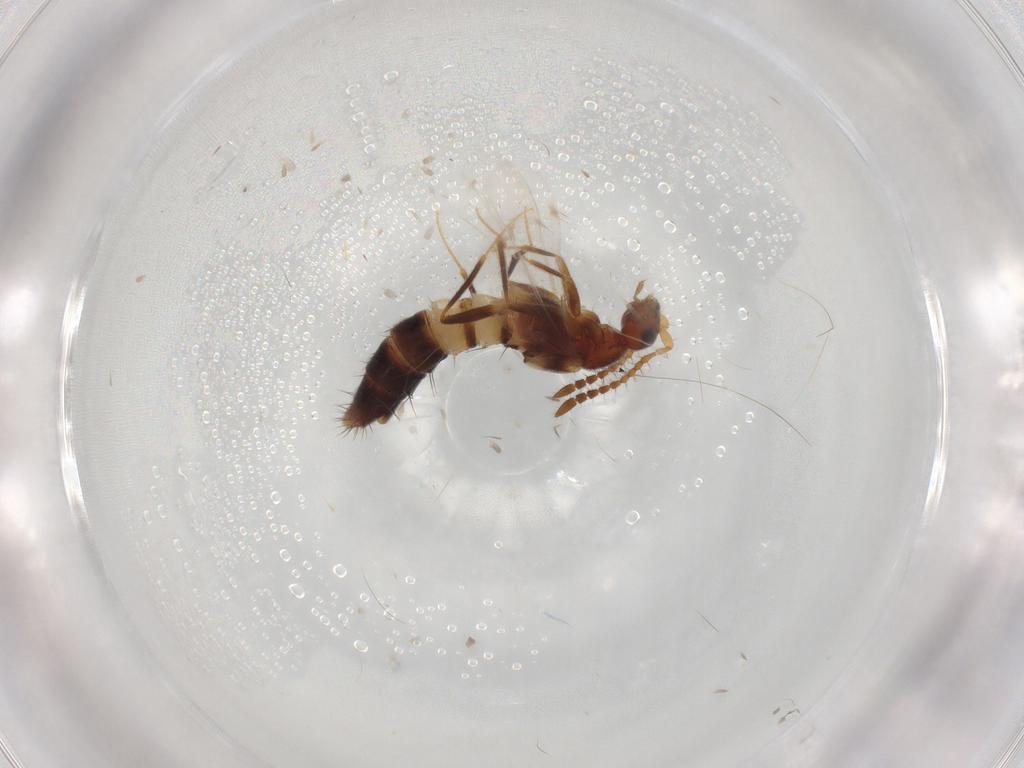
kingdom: Animalia
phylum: Arthropoda
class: Insecta
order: Coleoptera
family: Staphylinidae
